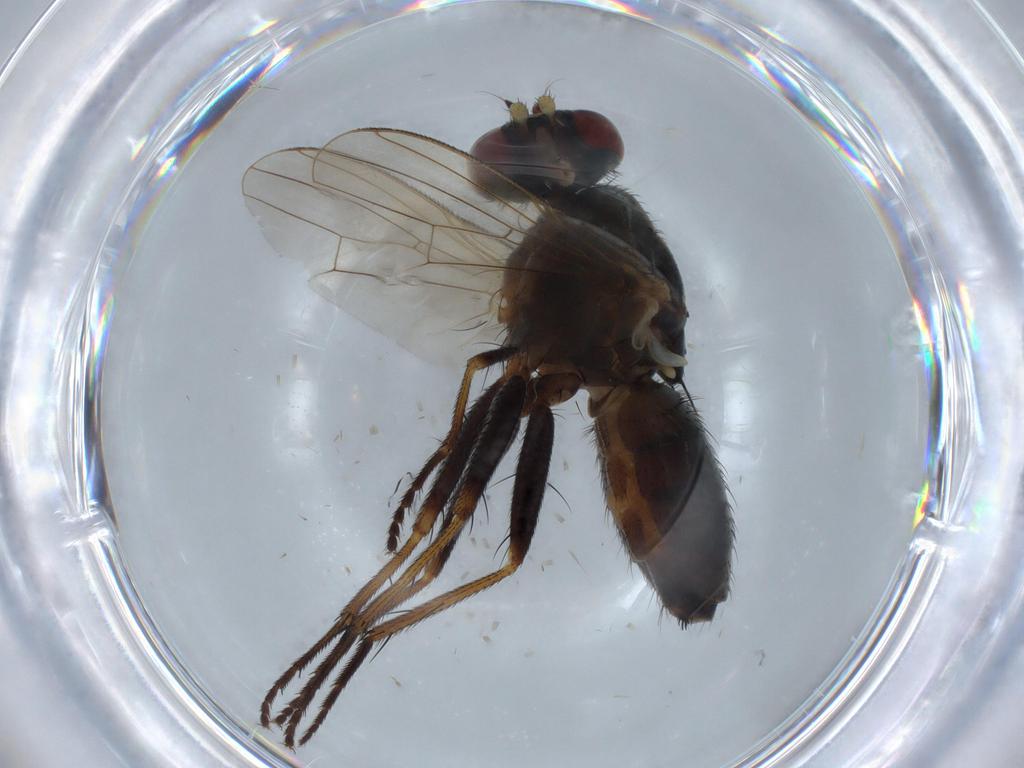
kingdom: Animalia
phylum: Arthropoda
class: Insecta
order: Diptera
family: Muscidae
